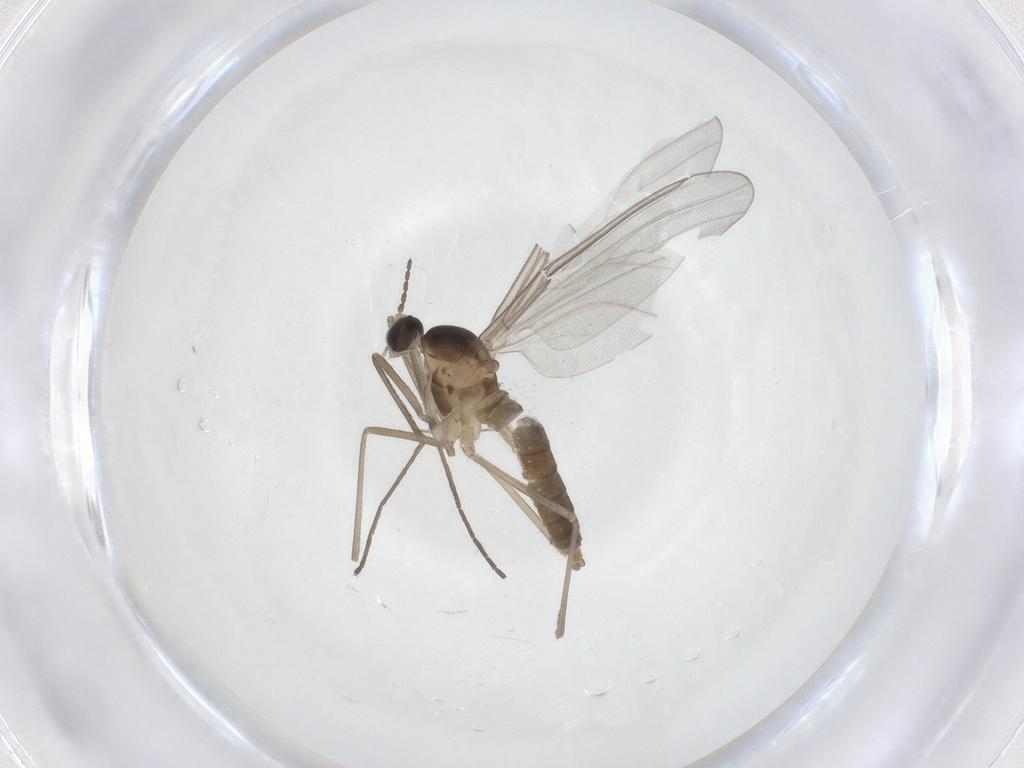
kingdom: Animalia
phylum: Arthropoda
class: Insecta
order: Diptera
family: Cecidomyiidae
